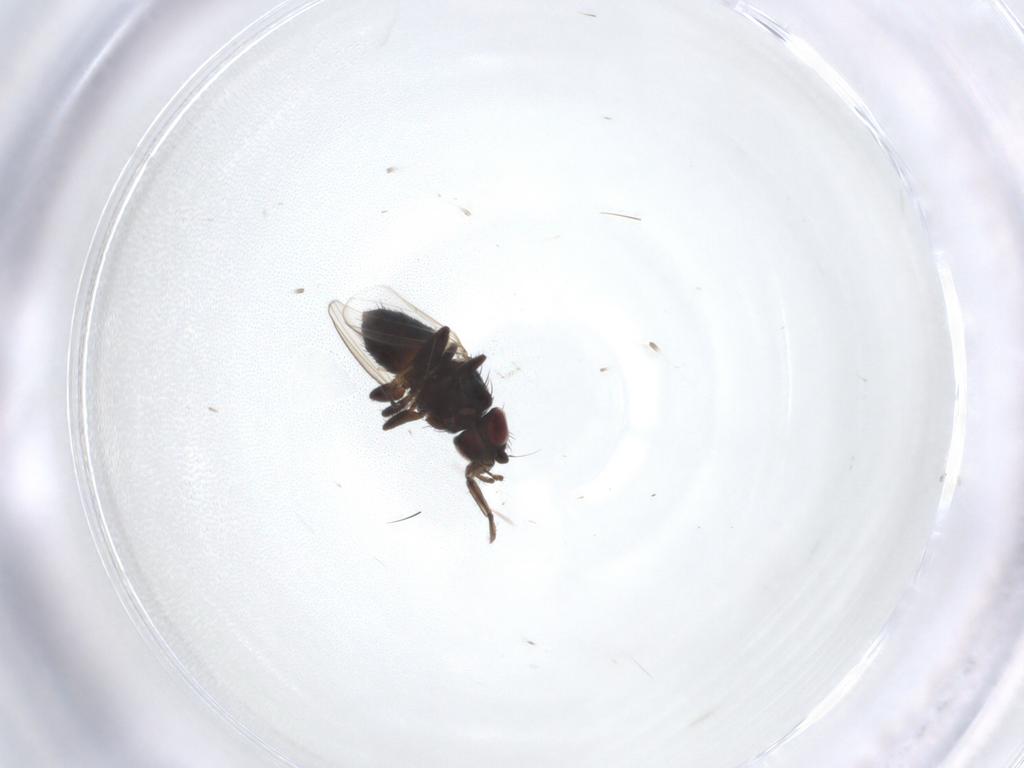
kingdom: Animalia
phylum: Arthropoda
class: Insecta
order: Diptera
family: Milichiidae
